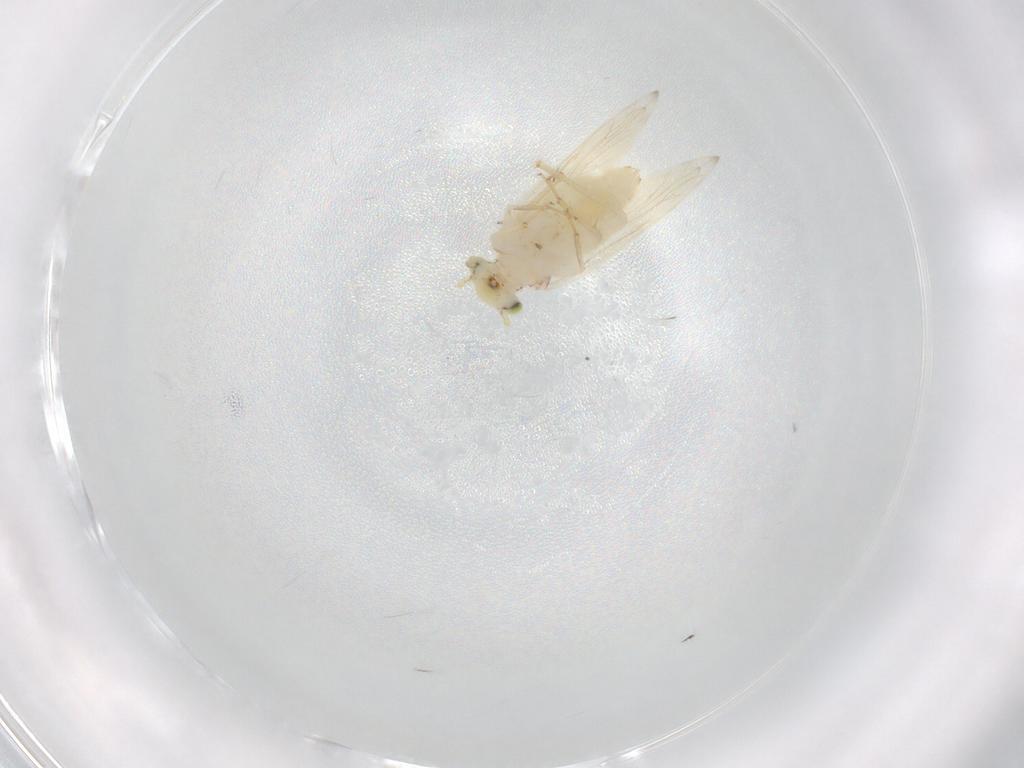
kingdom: Animalia
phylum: Arthropoda
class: Insecta
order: Psocodea
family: Lepidopsocidae
